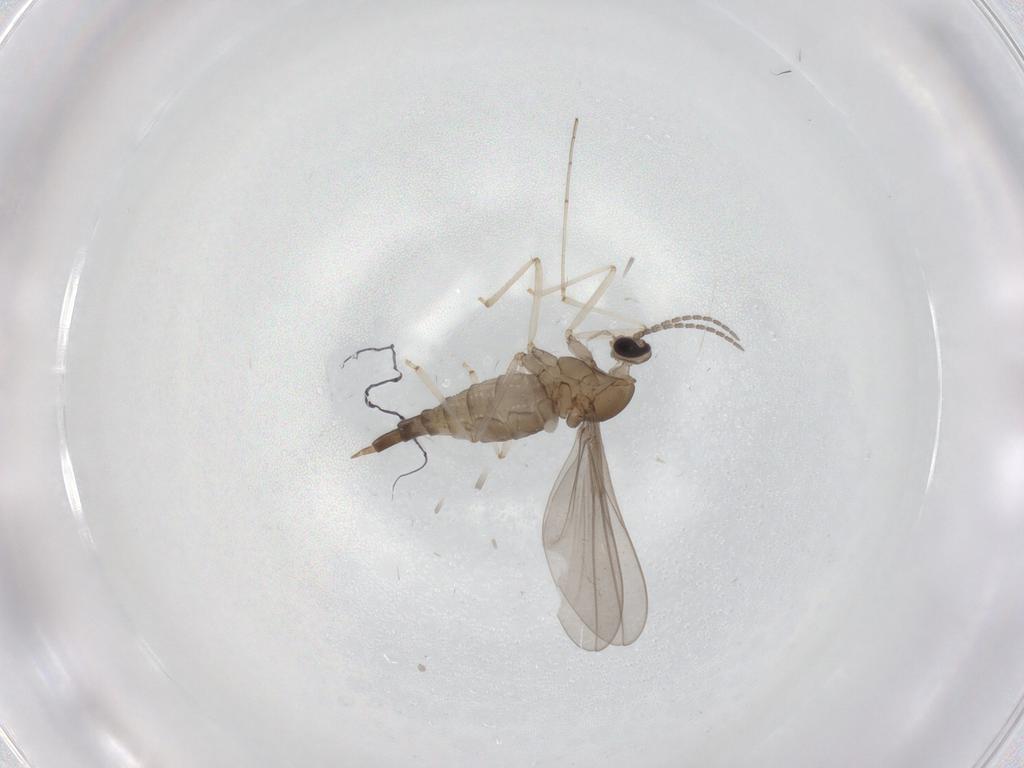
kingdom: Animalia
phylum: Arthropoda
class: Insecta
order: Diptera
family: Cecidomyiidae
